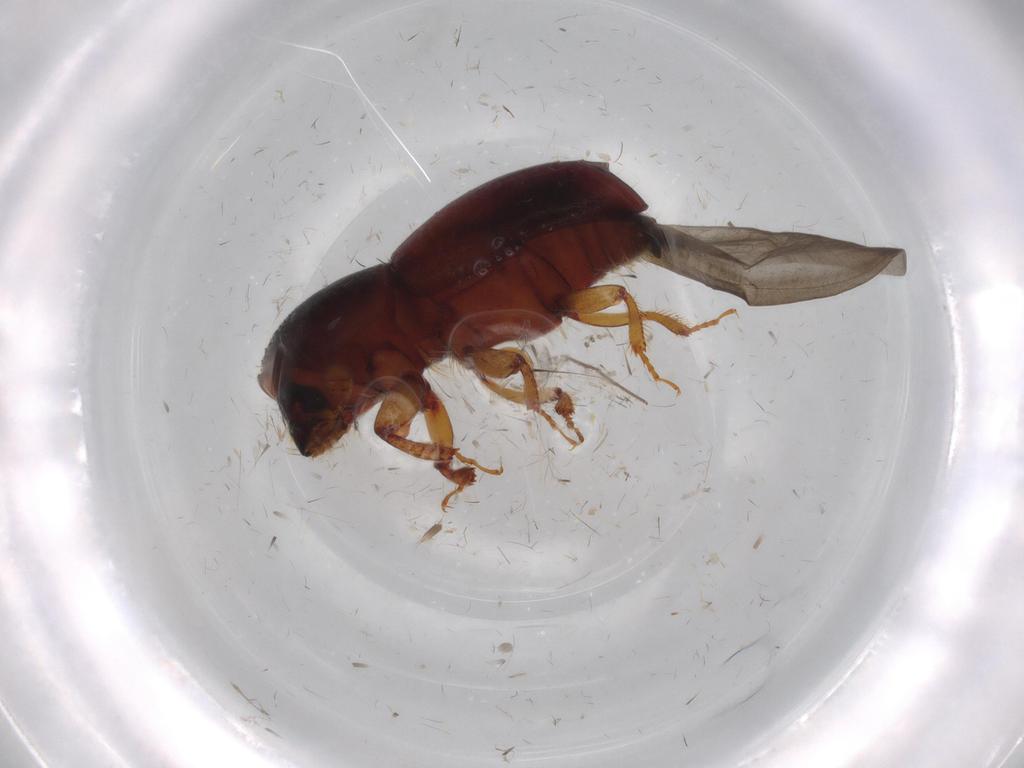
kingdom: Animalia
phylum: Arthropoda
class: Insecta
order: Coleoptera
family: Curculionidae
